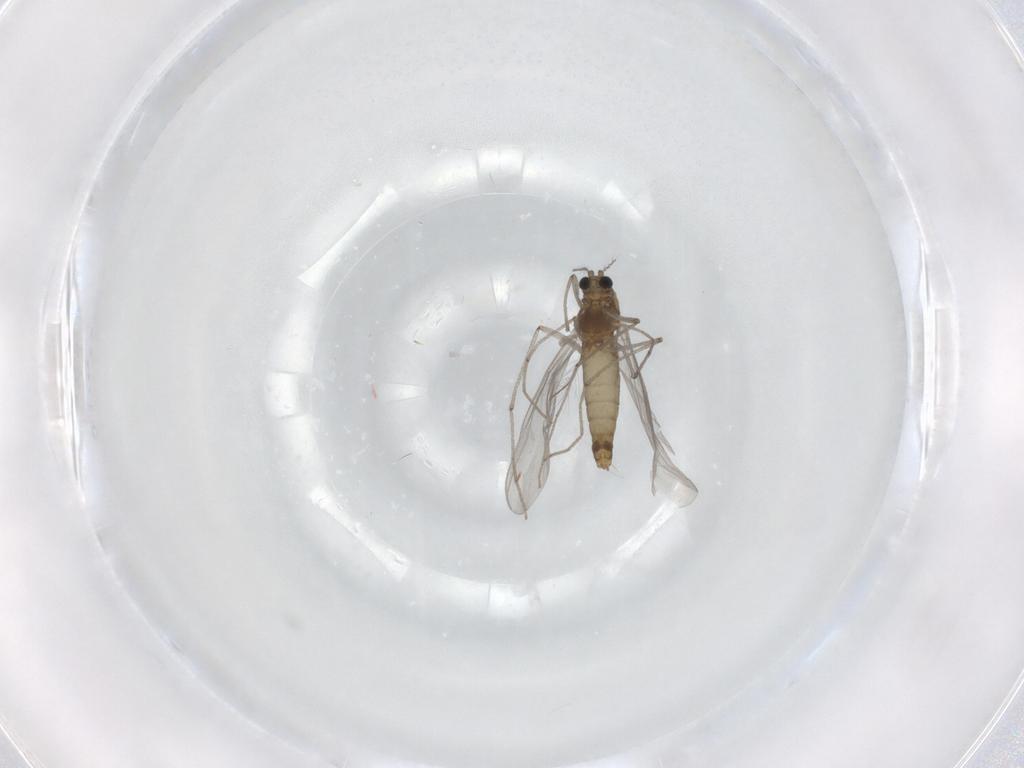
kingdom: Animalia
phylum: Arthropoda
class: Insecta
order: Diptera
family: Chironomidae
